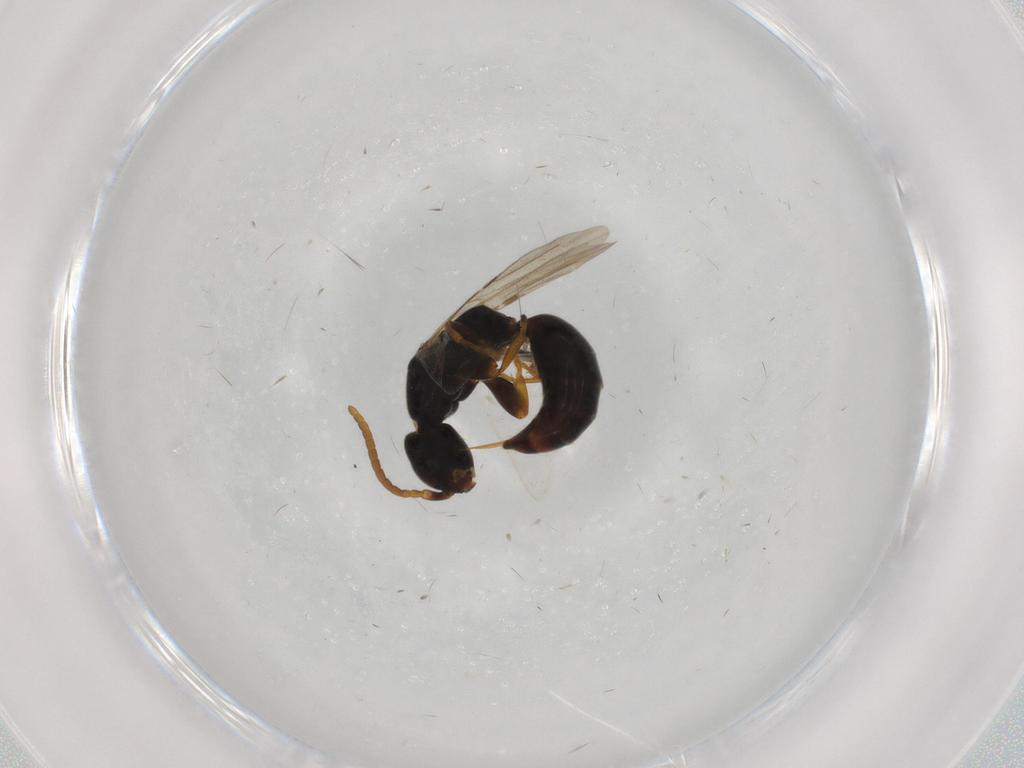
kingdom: Animalia
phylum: Arthropoda
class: Insecta
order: Hymenoptera
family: Bethylidae
